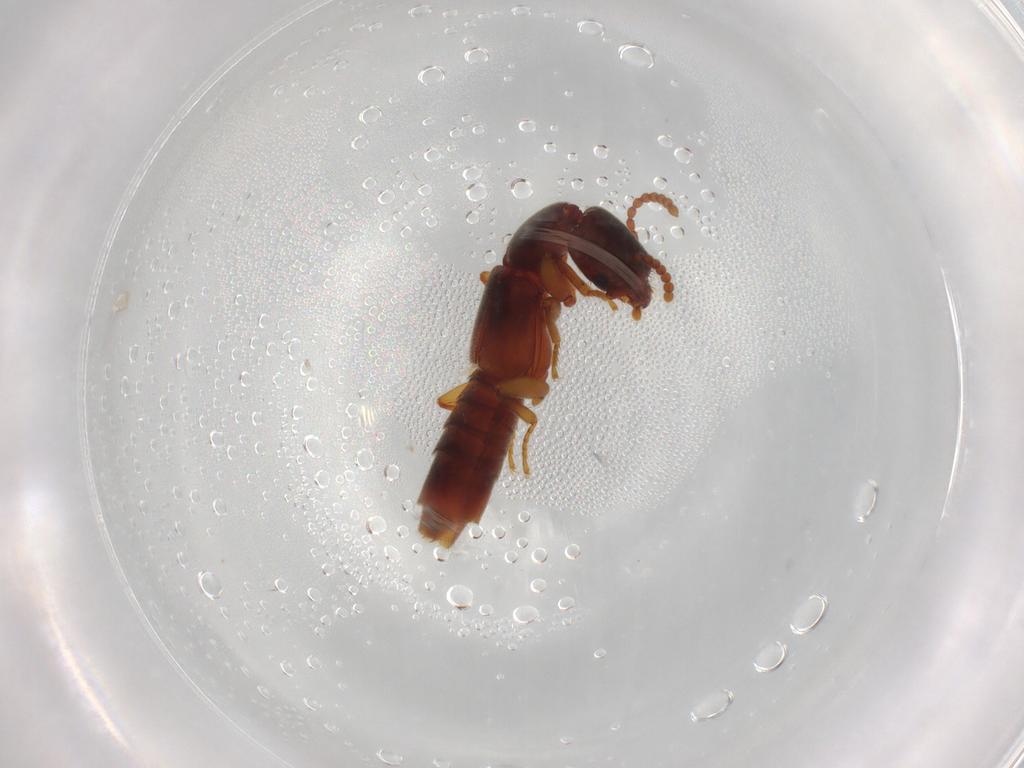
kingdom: Animalia
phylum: Arthropoda
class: Insecta
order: Coleoptera
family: Staphylinidae
